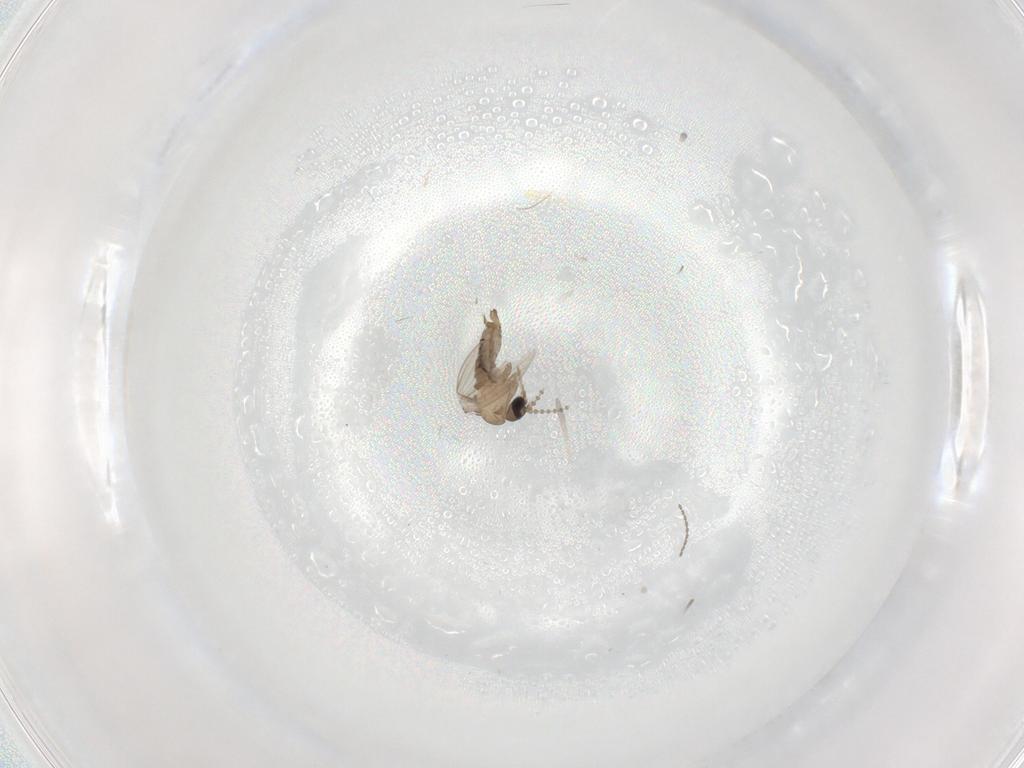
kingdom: Animalia
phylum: Arthropoda
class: Insecta
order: Diptera
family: Psychodidae
